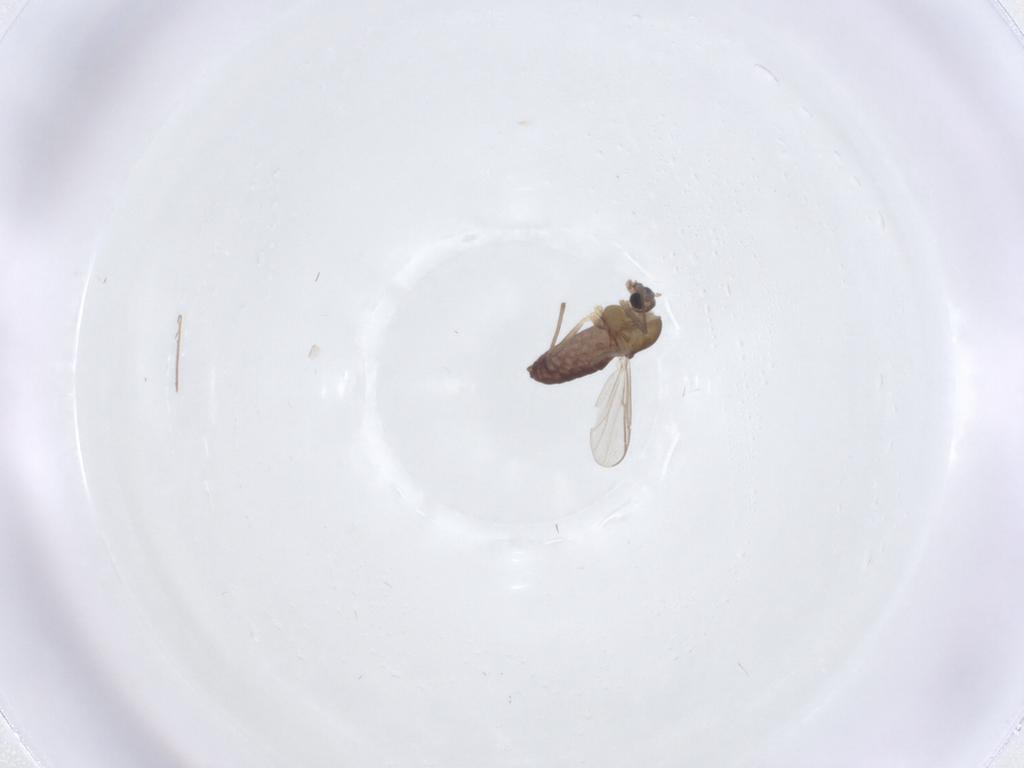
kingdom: Animalia
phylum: Arthropoda
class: Insecta
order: Diptera
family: Chironomidae
